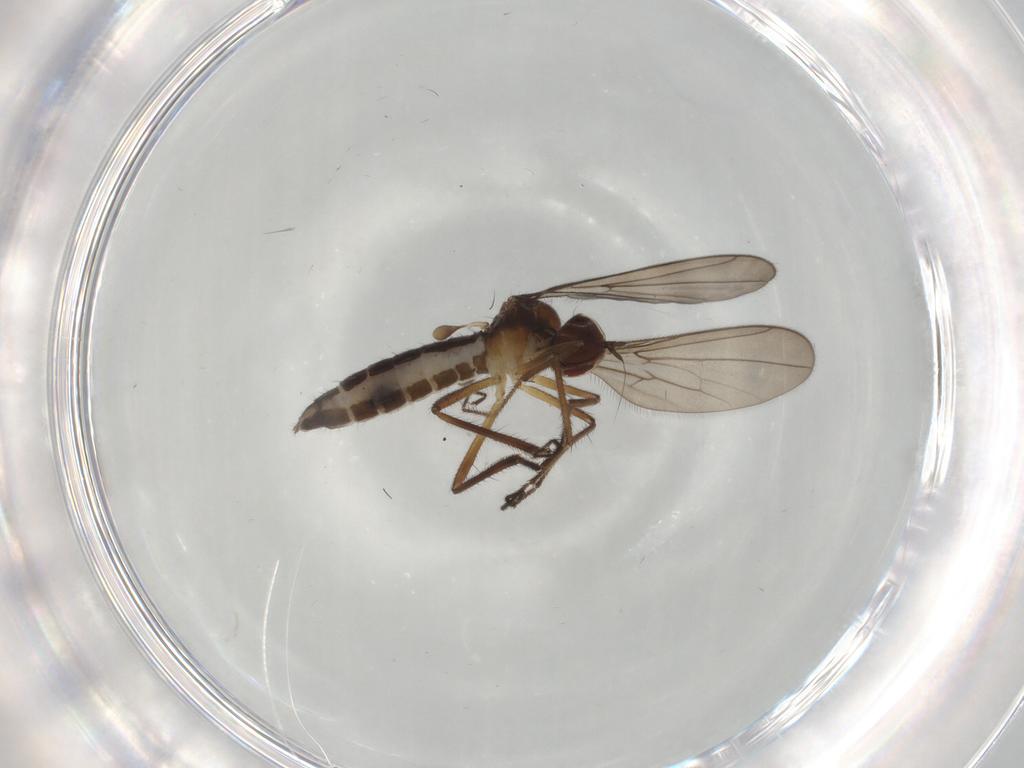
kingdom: Animalia
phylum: Arthropoda
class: Insecta
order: Diptera
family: Hybotidae
